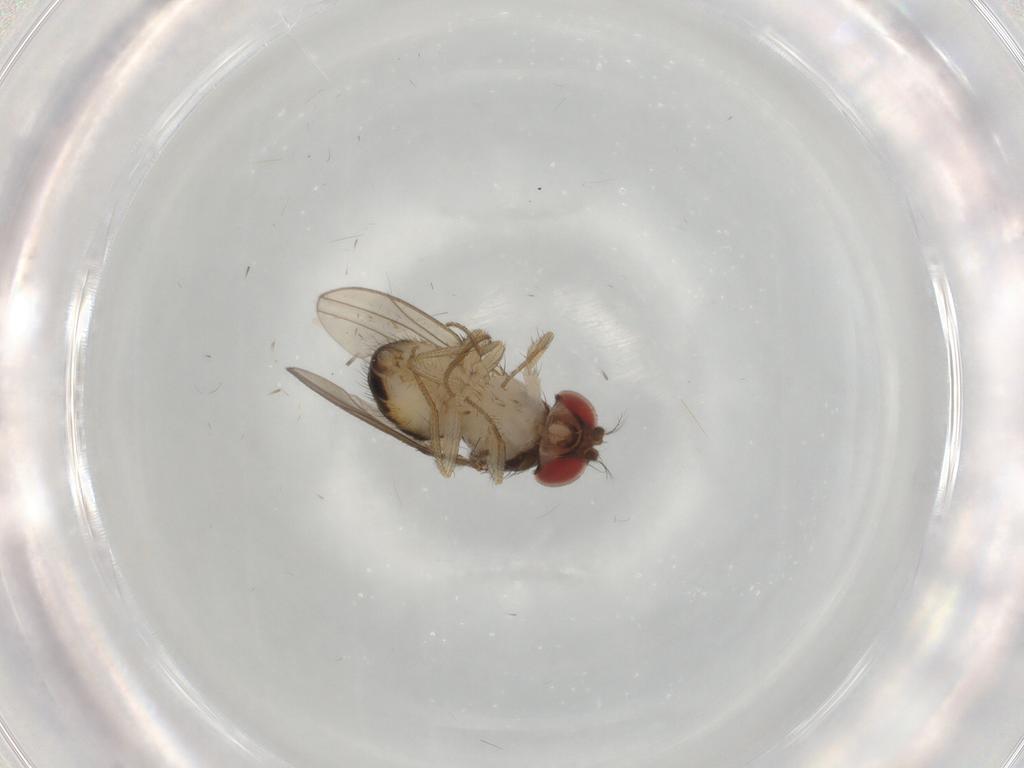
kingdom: Animalia
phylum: Arthropoda
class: Insecta
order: Diptera
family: Drosophilidae
